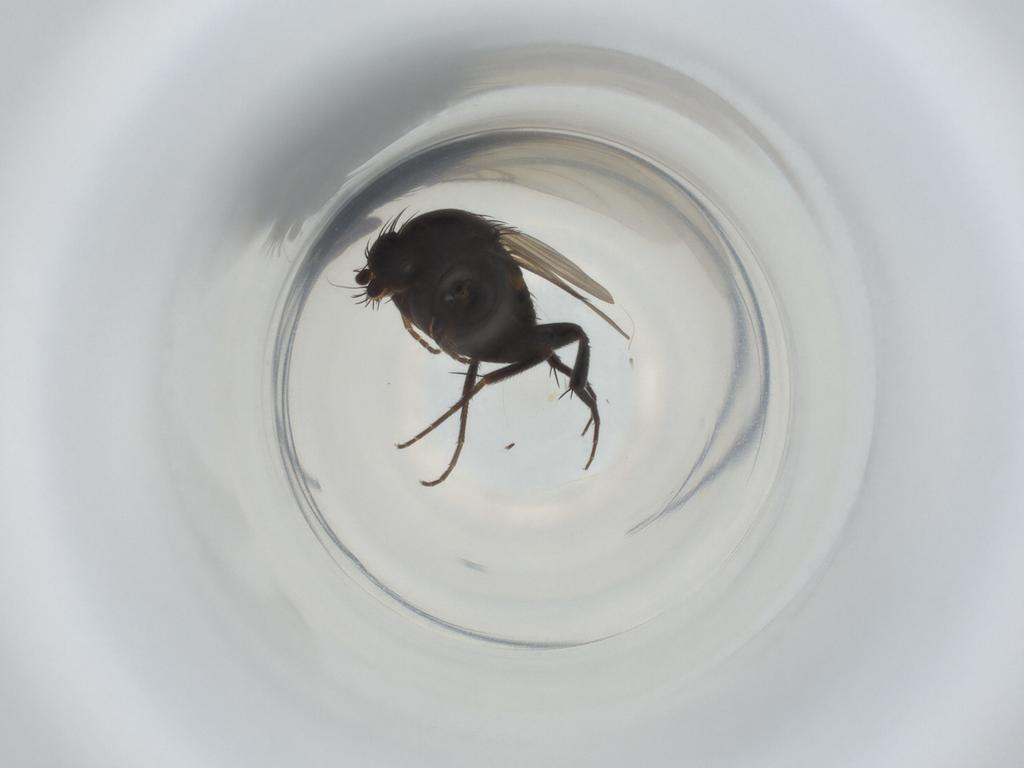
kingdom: Animalia
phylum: Arthropoda
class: Insecta
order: Diptera
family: Phoridae
